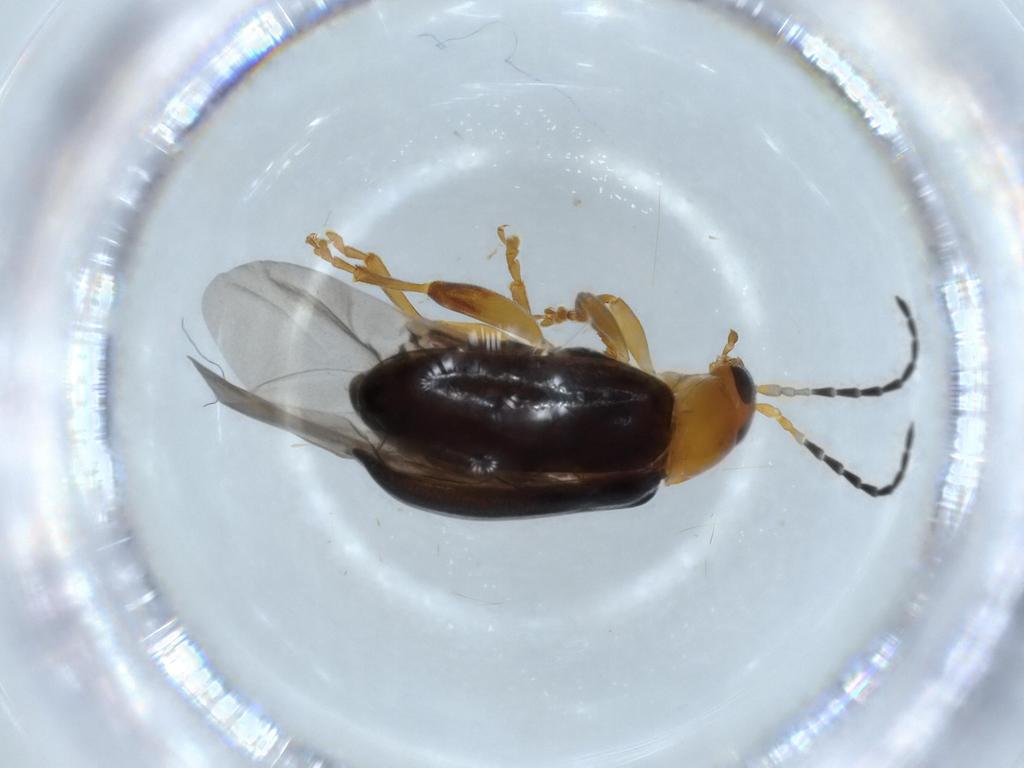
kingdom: Animalia
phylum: Arthropoda
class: Insecta
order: Coleoptera
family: Chrysomelidae
